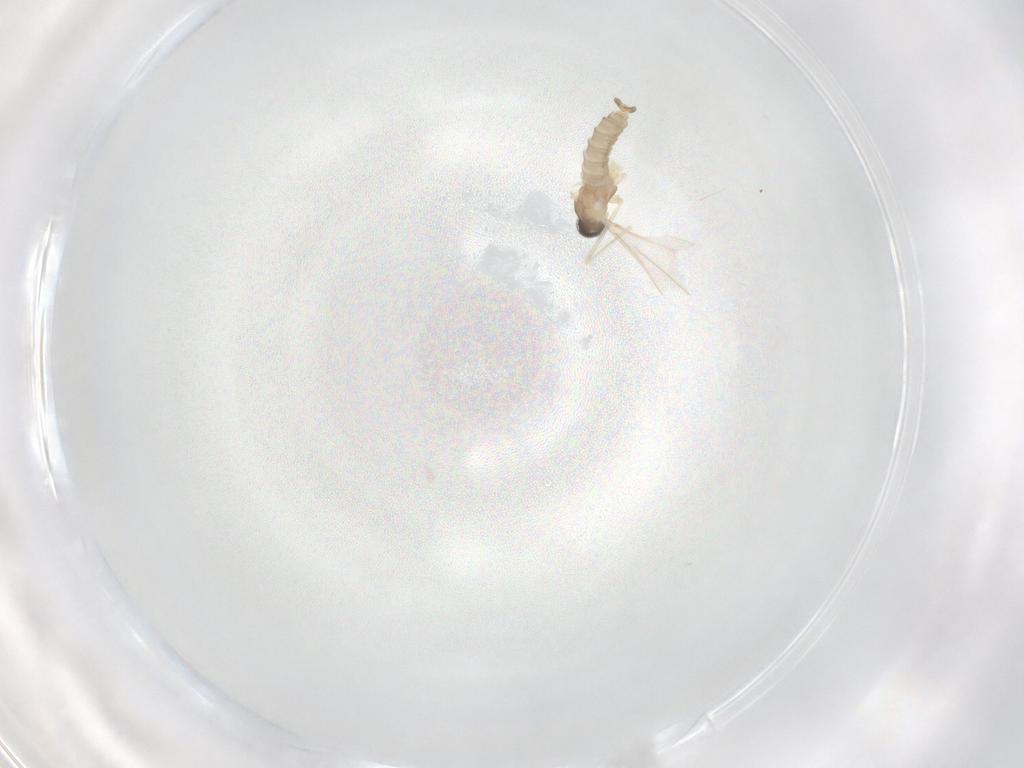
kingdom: Animalia
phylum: Arthropoda
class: Insecta
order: Diptera
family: Cecidomyiidae
